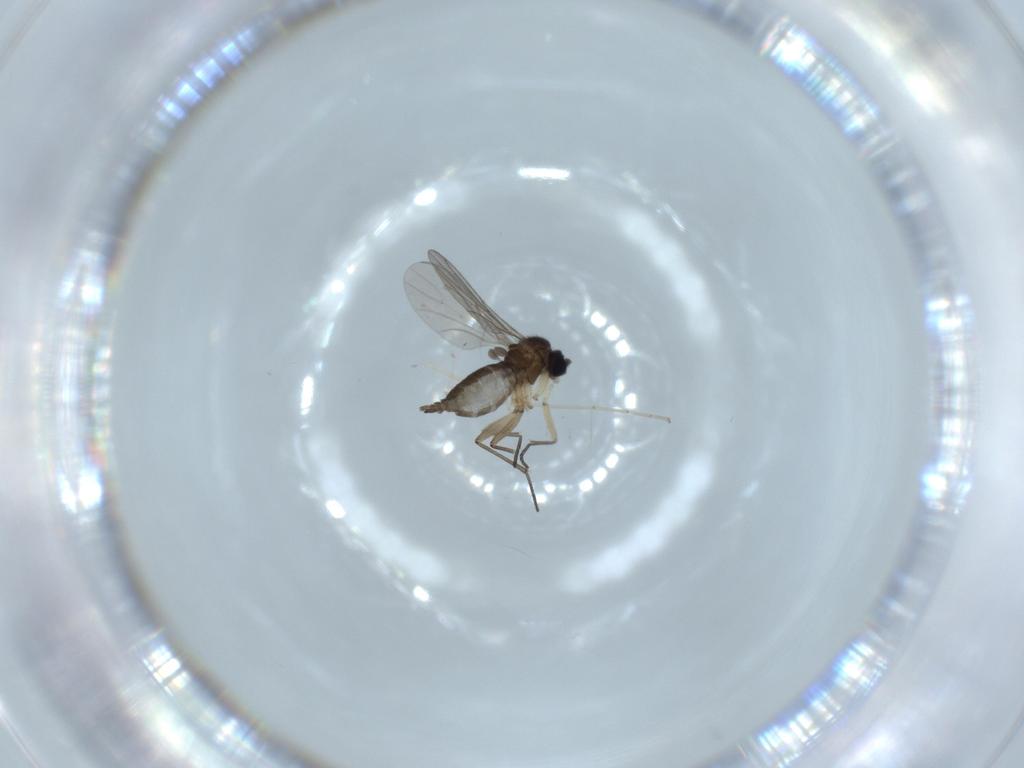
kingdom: Animalia
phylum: Arthropoda
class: Insecta
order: Diptera
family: Sciaridae
